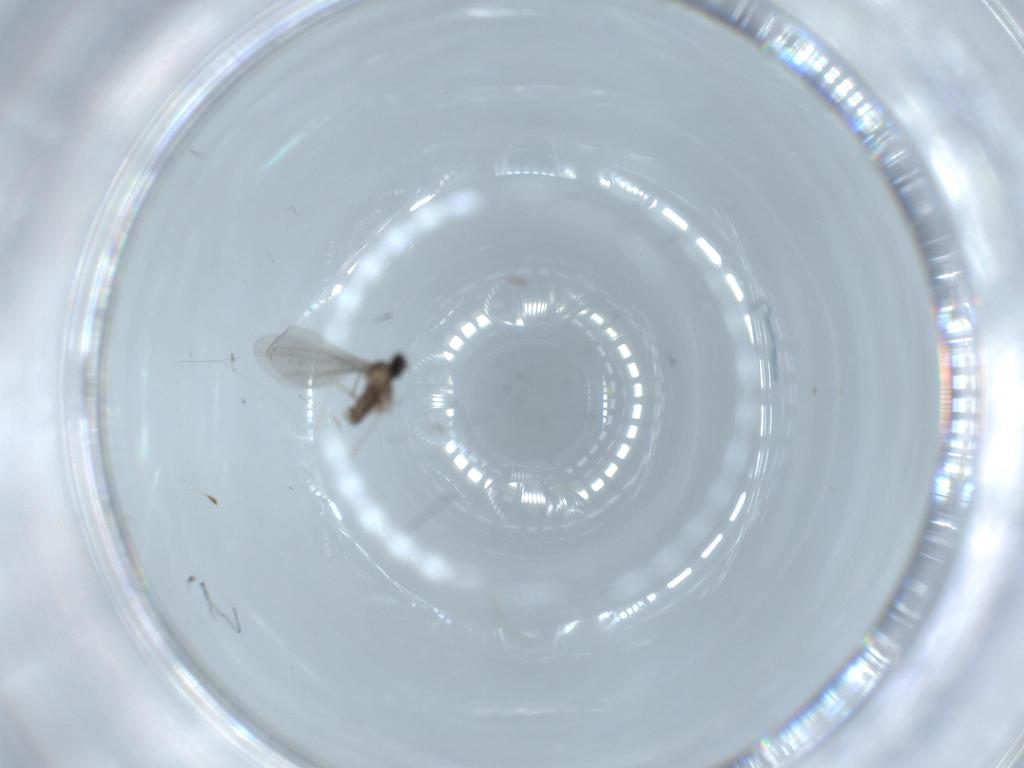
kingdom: Animalia
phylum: Arthropoda
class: Insecta
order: Diptera
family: Cecidomyiidae
